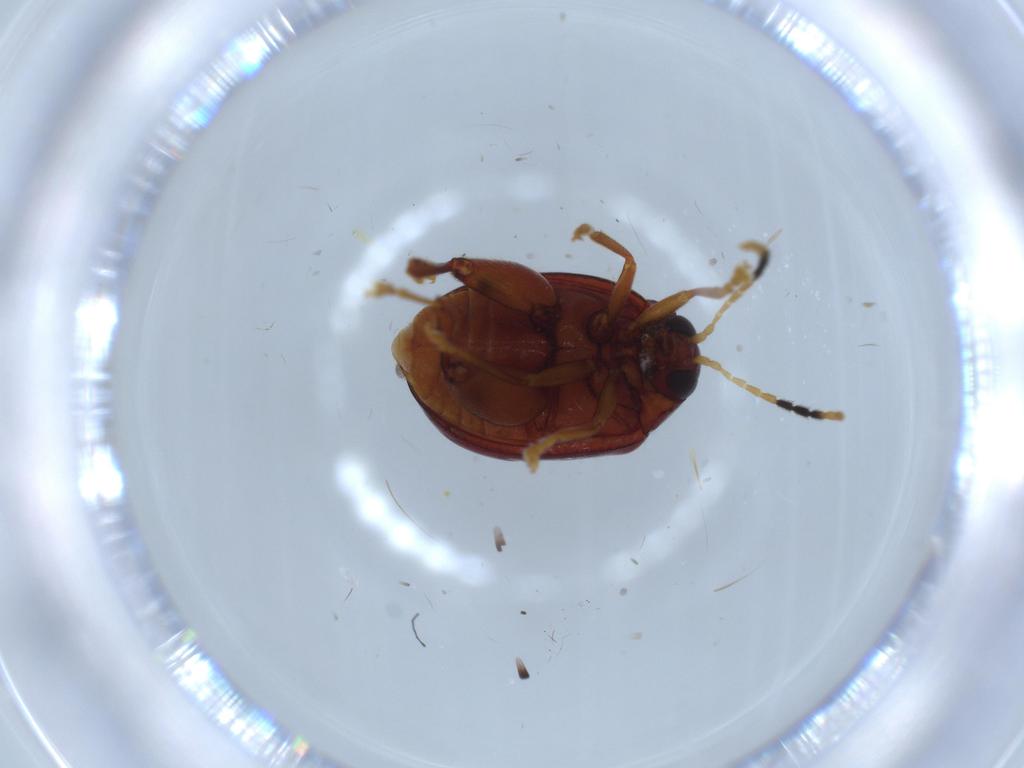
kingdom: Animalia
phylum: Arthropoda
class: Insecta
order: Coleoptera
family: Chrysomelidae
